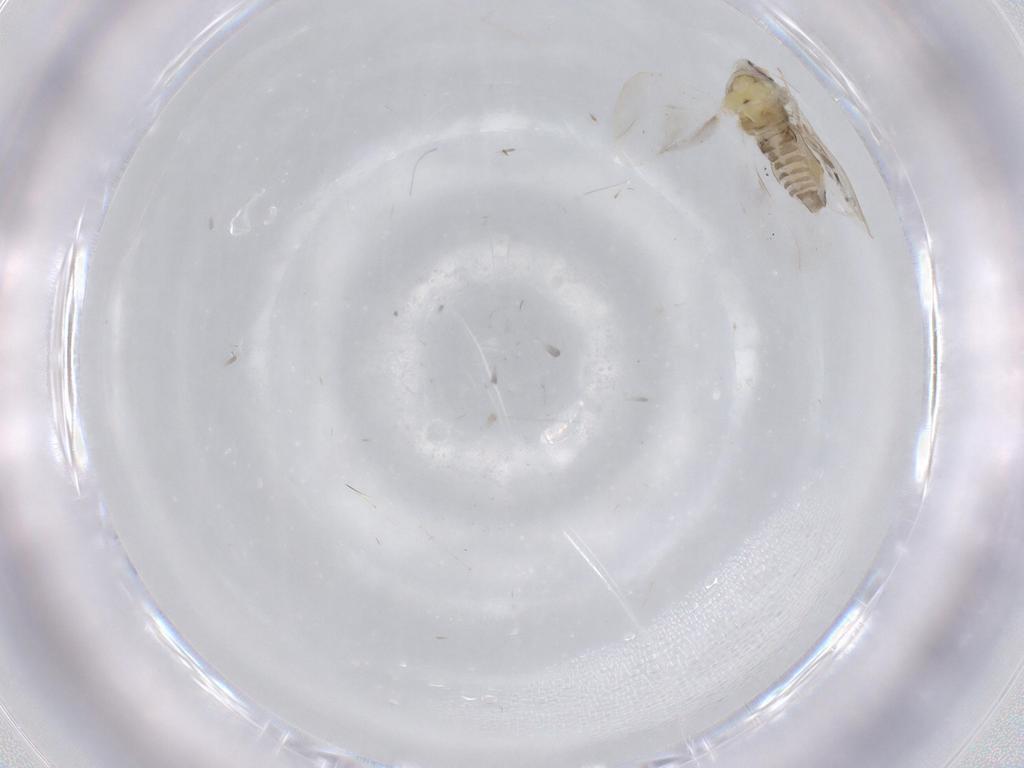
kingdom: Animalia
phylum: Arthropoda
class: Insecta
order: Hemiptera
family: Aleyrodidae
